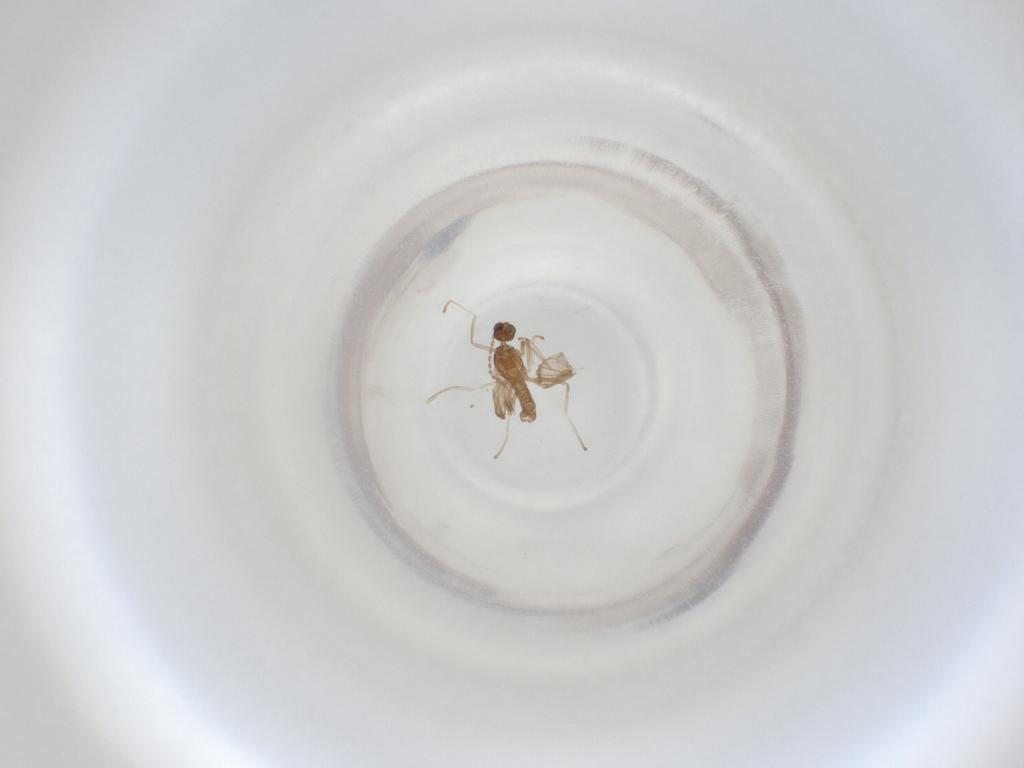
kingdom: Animalia
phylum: Arthropoda
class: Insecta
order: Diptera
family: Cecidomyiidae
